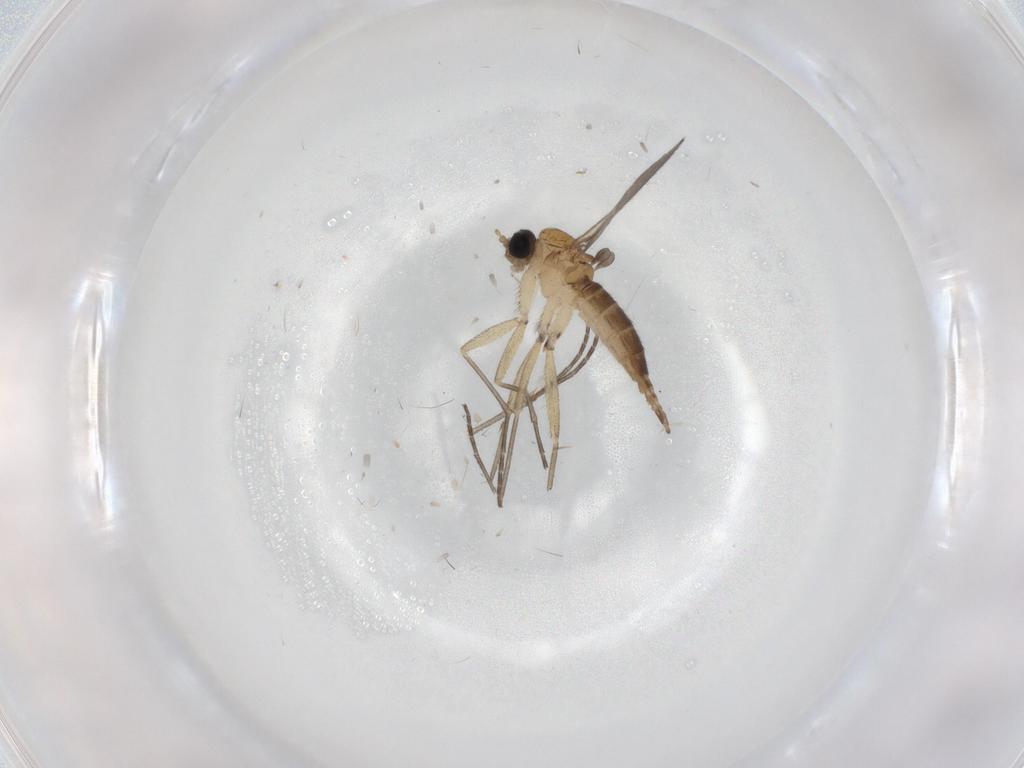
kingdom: Animalia
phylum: Arthropoda
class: Insecta
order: Diptera
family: Sciaridae
